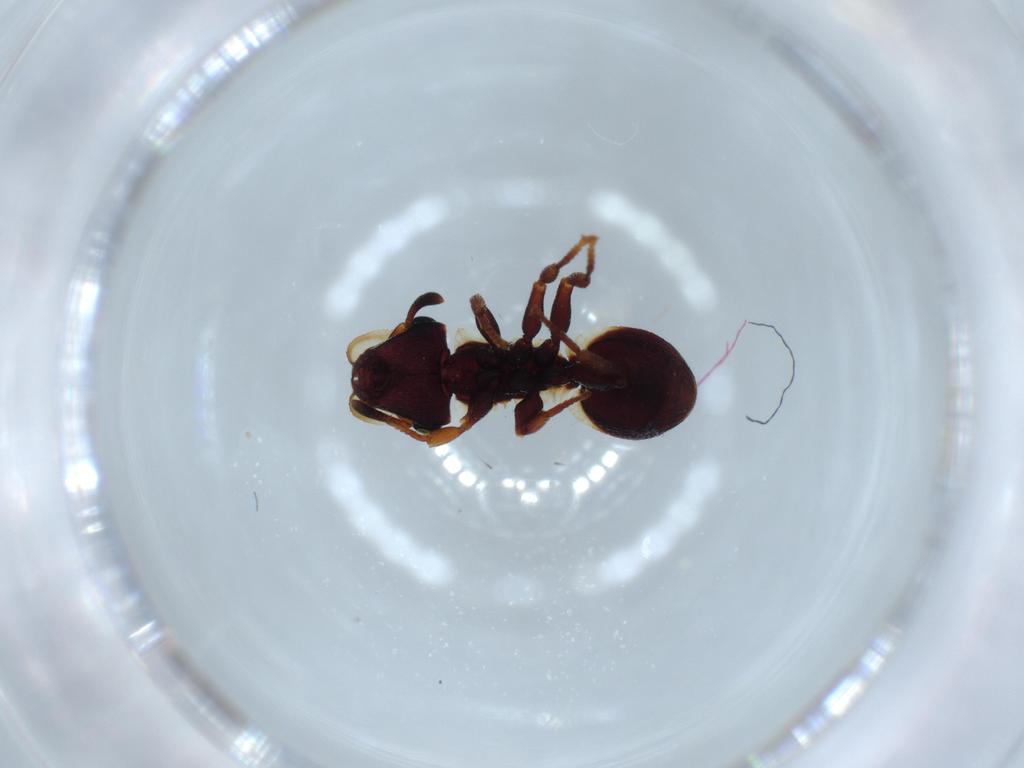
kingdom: Animalia
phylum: Arthropoda
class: Insecta
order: Hymenoptera
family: Formicidae
